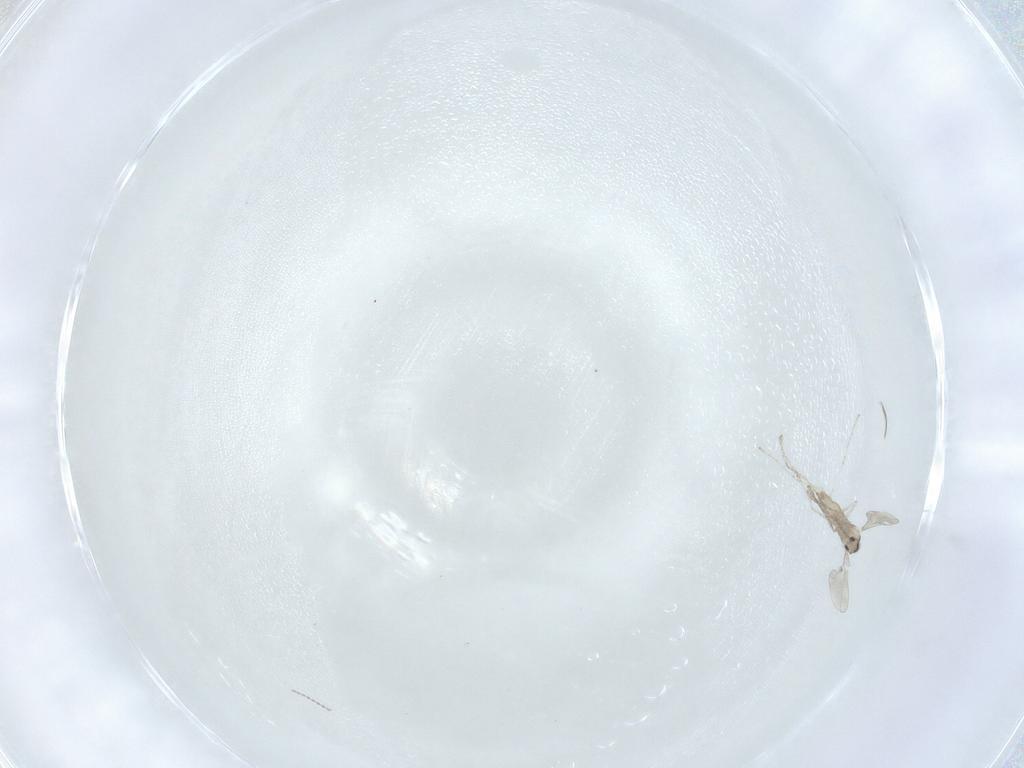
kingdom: Animalia
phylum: Arthropoda
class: Insecta
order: Diptera
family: Cecidomyiidae
